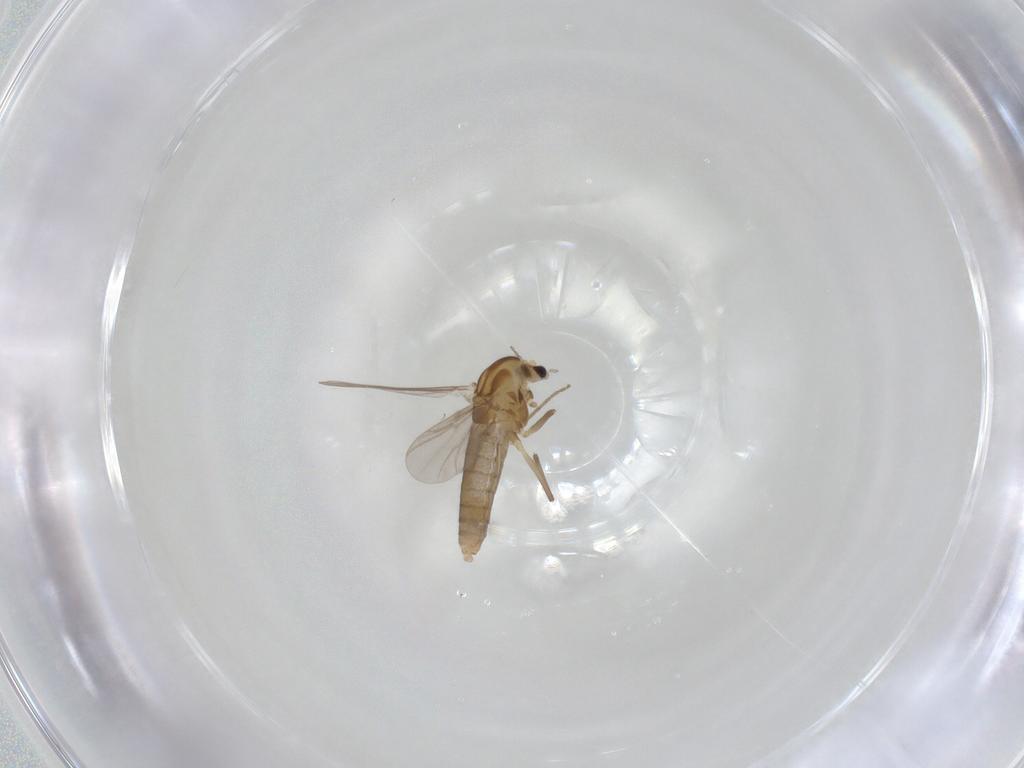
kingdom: Animalia
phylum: Arthropoda
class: Insecta
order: Diptera
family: Chironomidae
